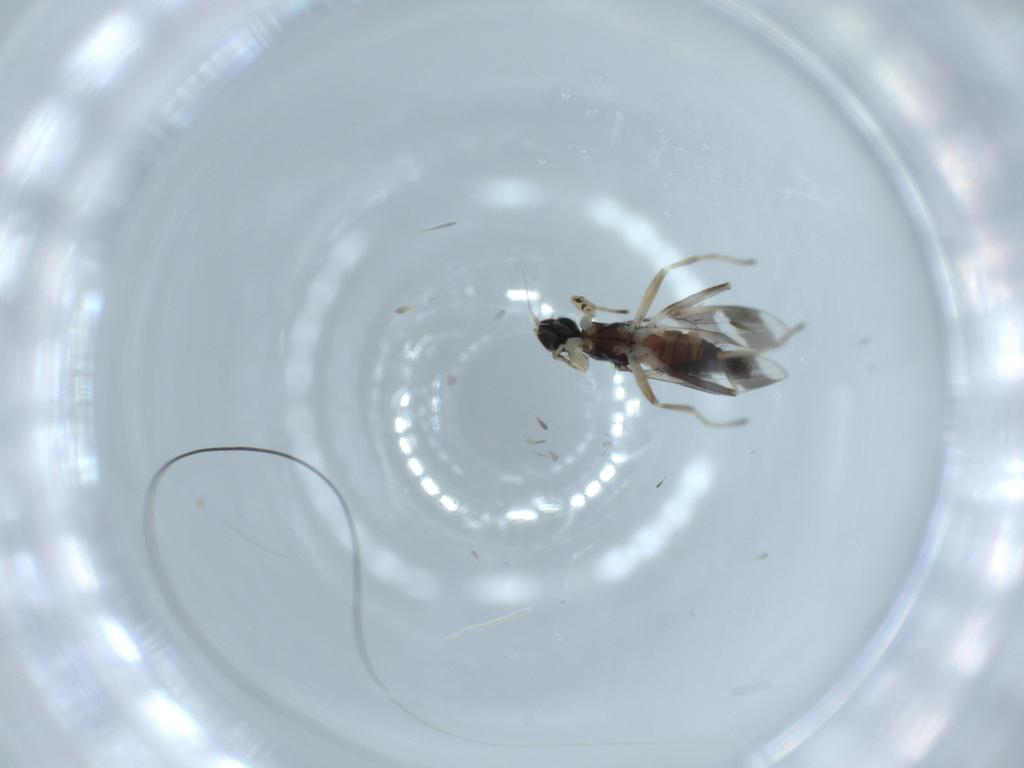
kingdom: Animalia
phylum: Arthropoda
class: Insecta
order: Diptera
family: Hybotidae
